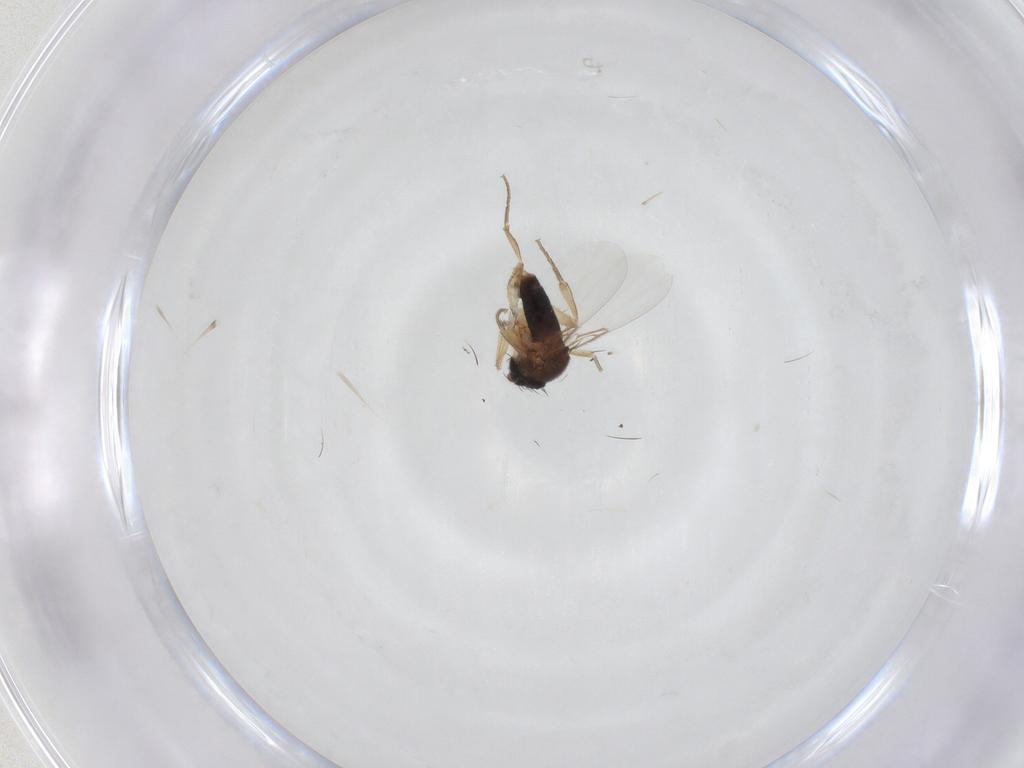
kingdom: Animalia
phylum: Arthropoda
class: Insecta
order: Diptera
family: Phoridae
